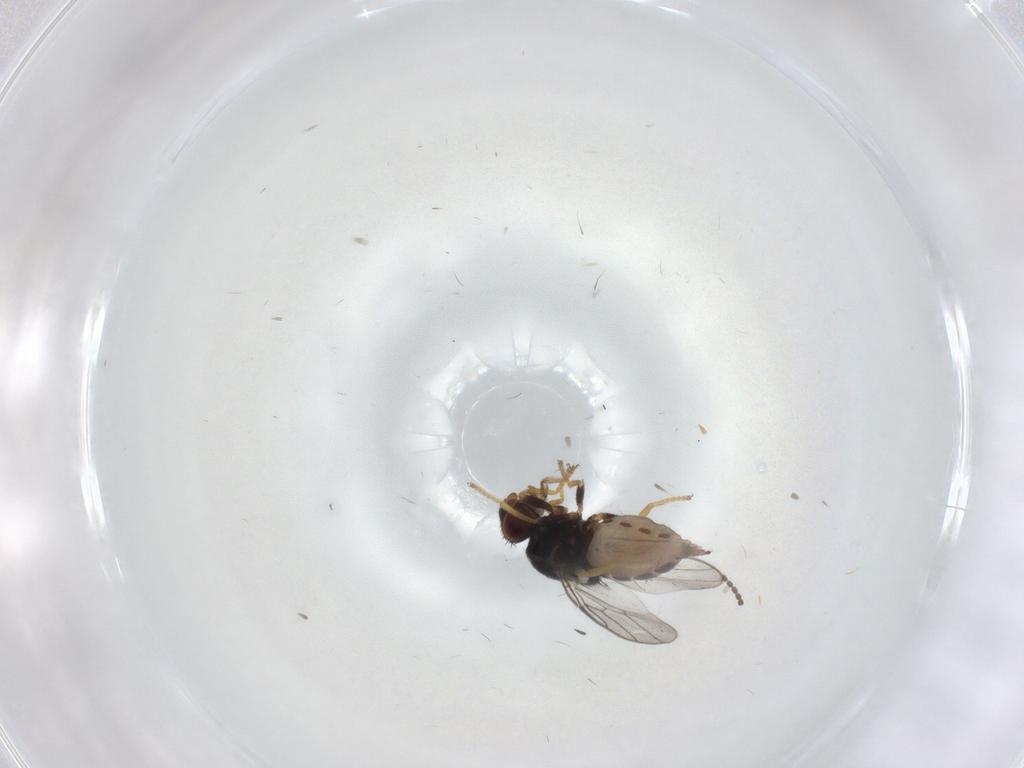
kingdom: Animalia
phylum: Arthropoda
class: Insecta
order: Diptera
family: Chloropidae
